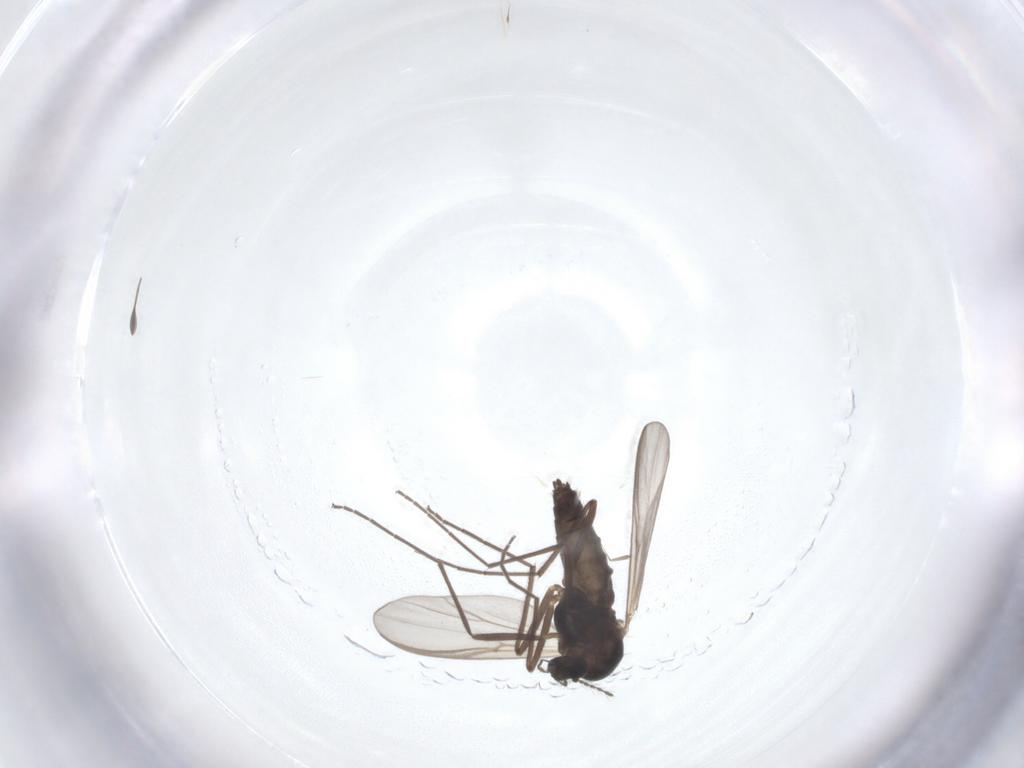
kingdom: Animalia
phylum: Arthropoda
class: Insecta
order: Diptera
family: Chironomidae
